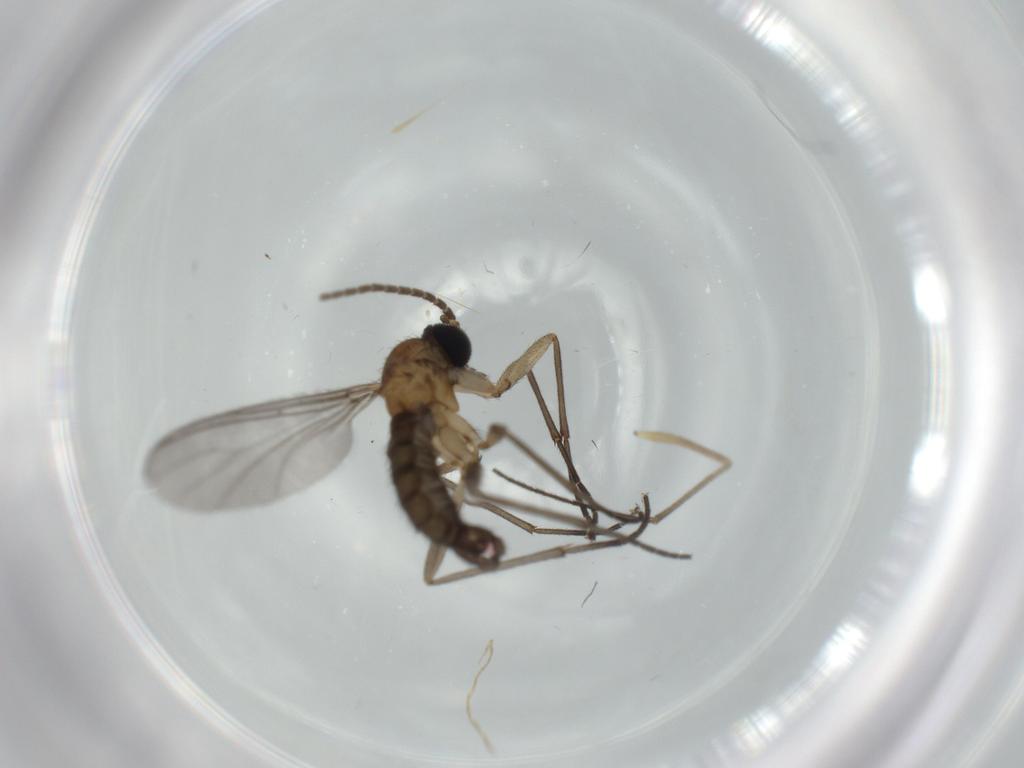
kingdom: Animalia
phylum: Arthropoda
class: Insecta
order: Diptera
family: Sciaridae
